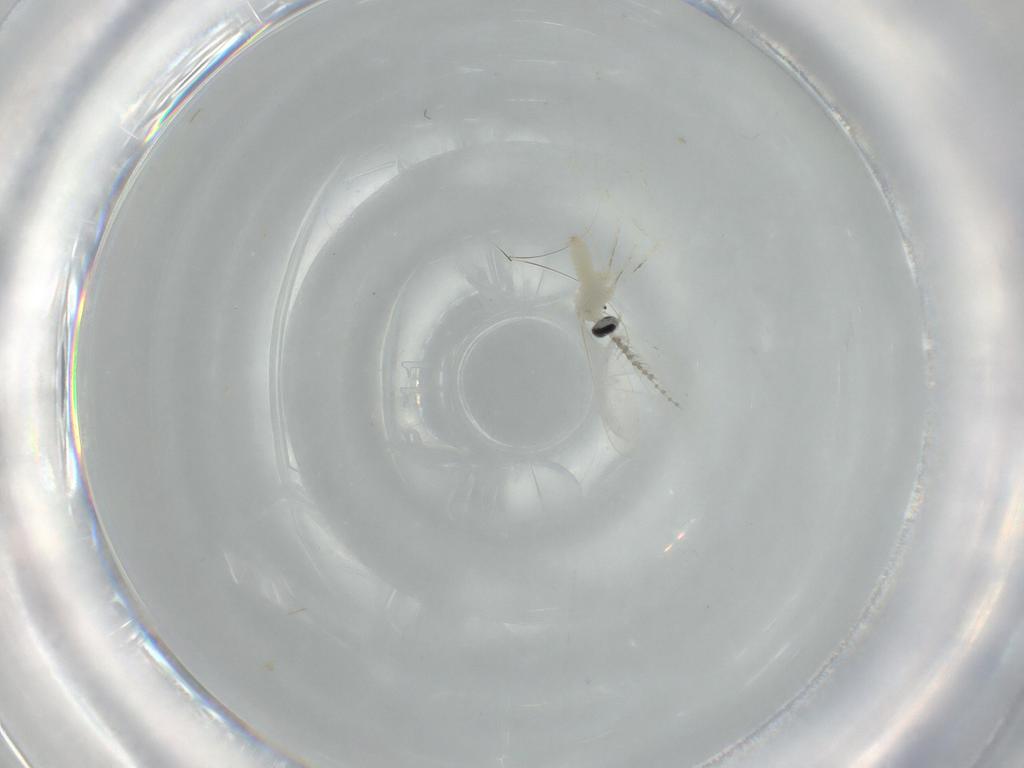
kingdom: Animalia
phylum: Arthropoda
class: Insecta
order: Diptera
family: Cecidomyiidae
